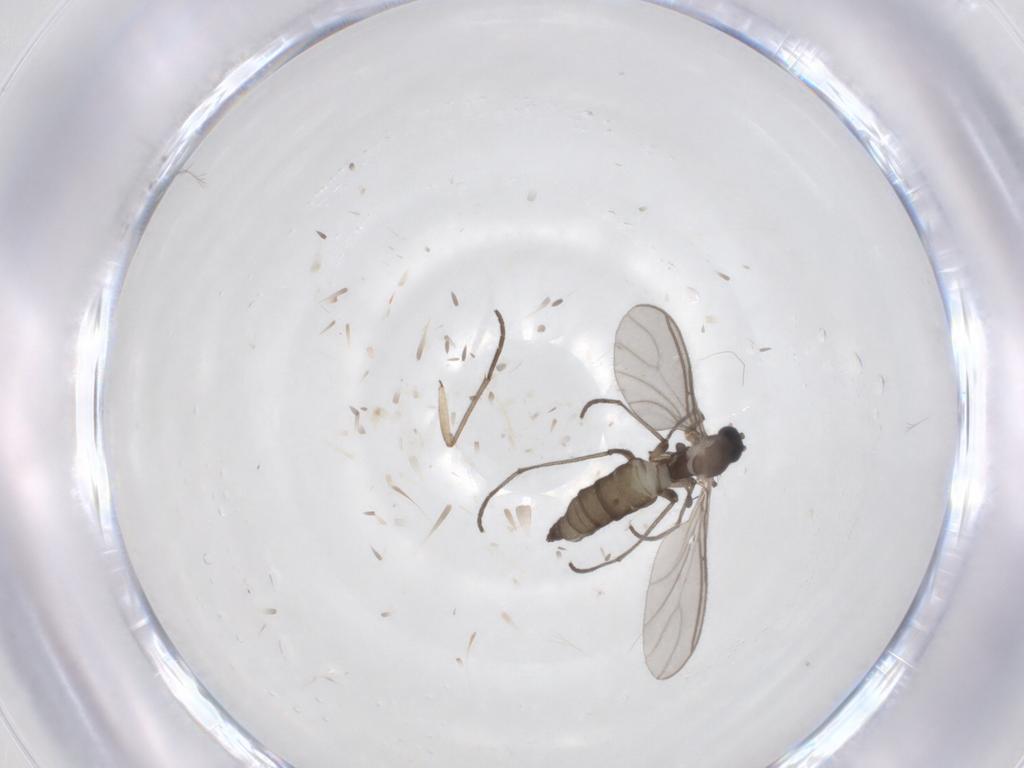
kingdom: Animalia
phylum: Arthropoda
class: Insecta
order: Diptera
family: Sciaridae
